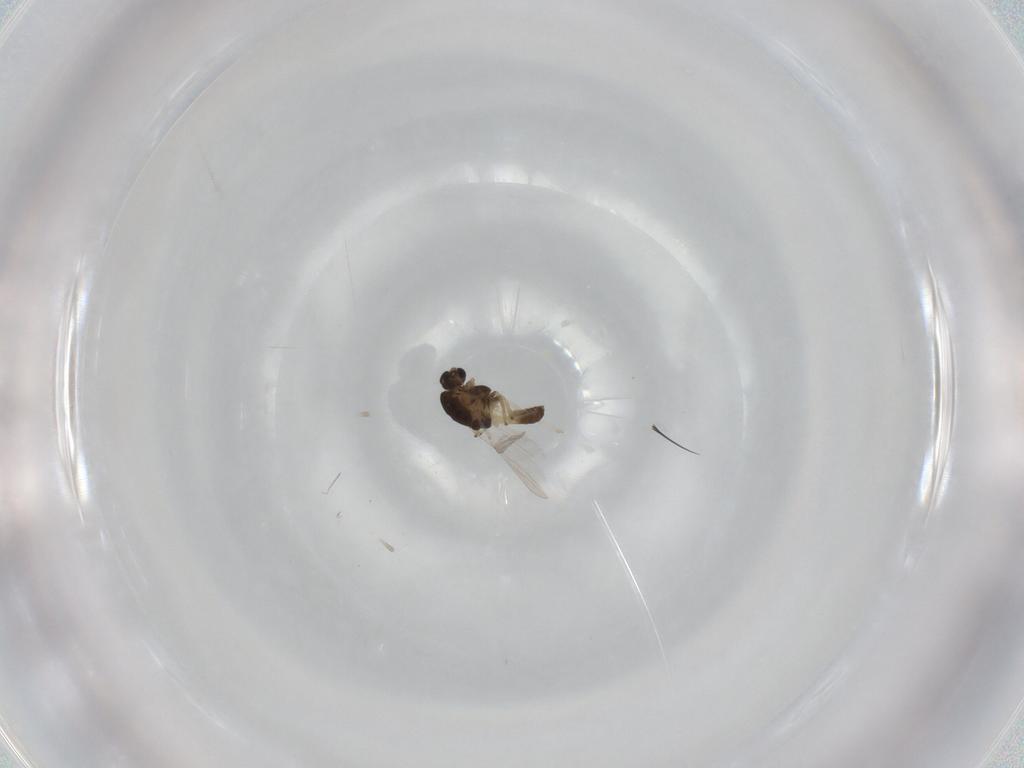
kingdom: Animalia
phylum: Arthropoda
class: Insecta
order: Diptera
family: Chironomidae
